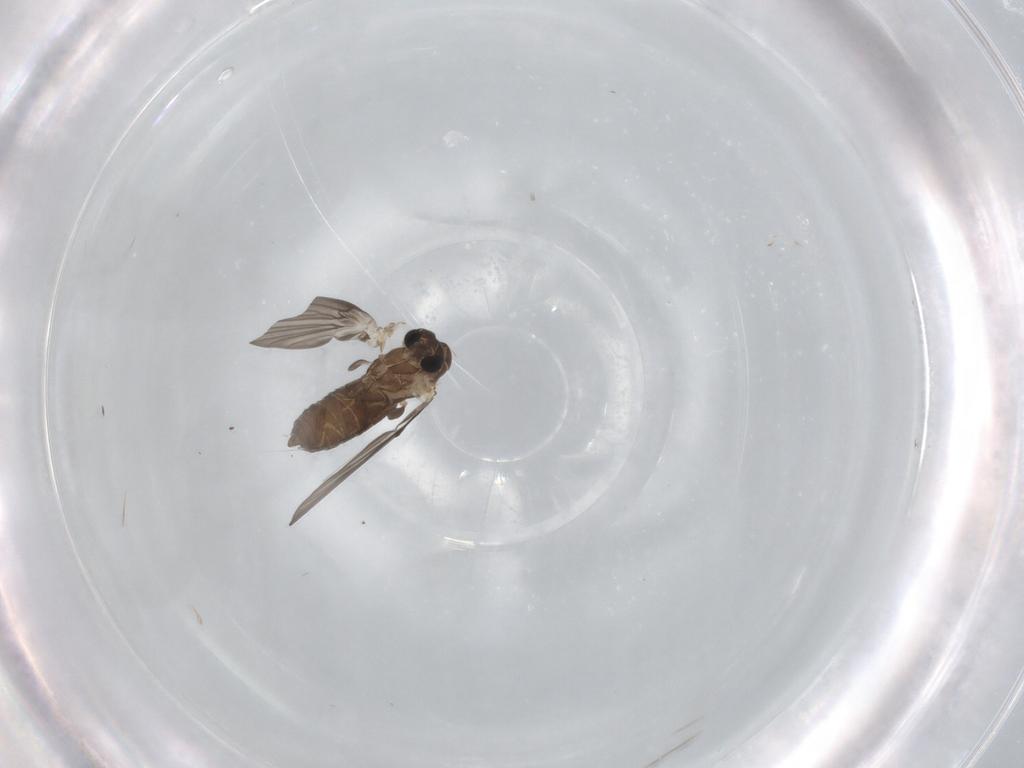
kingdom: Animalia
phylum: Arthropoda
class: Insecta
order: Diptera
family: Psychodidae
